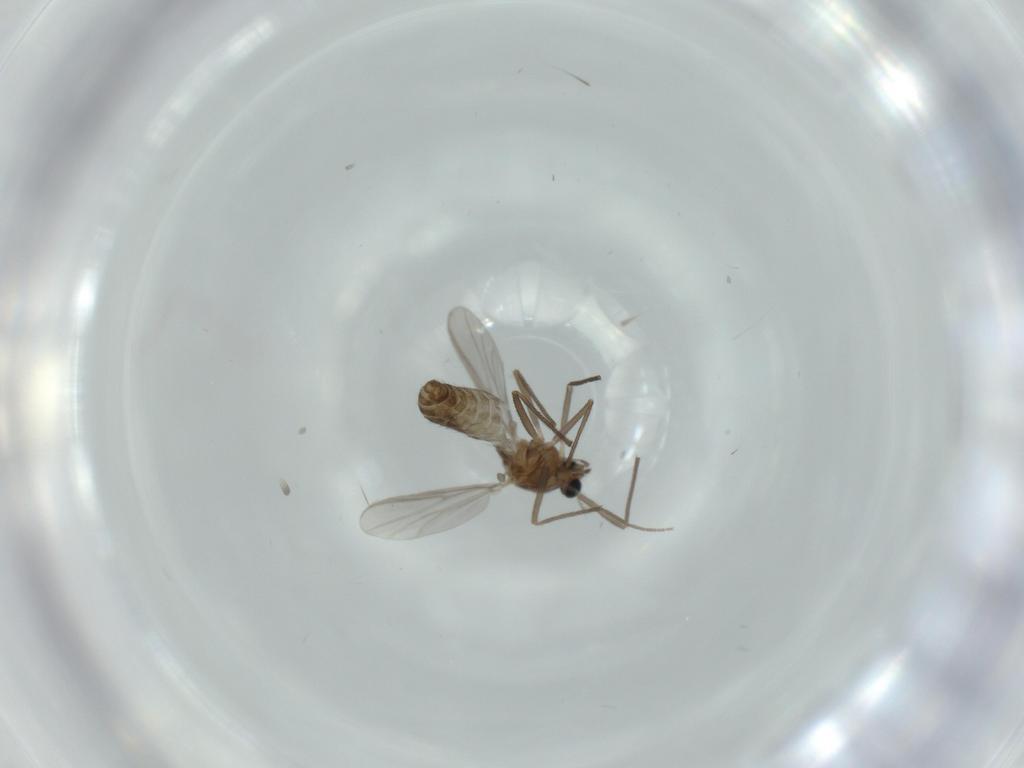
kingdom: Animalia
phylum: Arthropoda
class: Insecta
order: Diptera
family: Chironomidae
